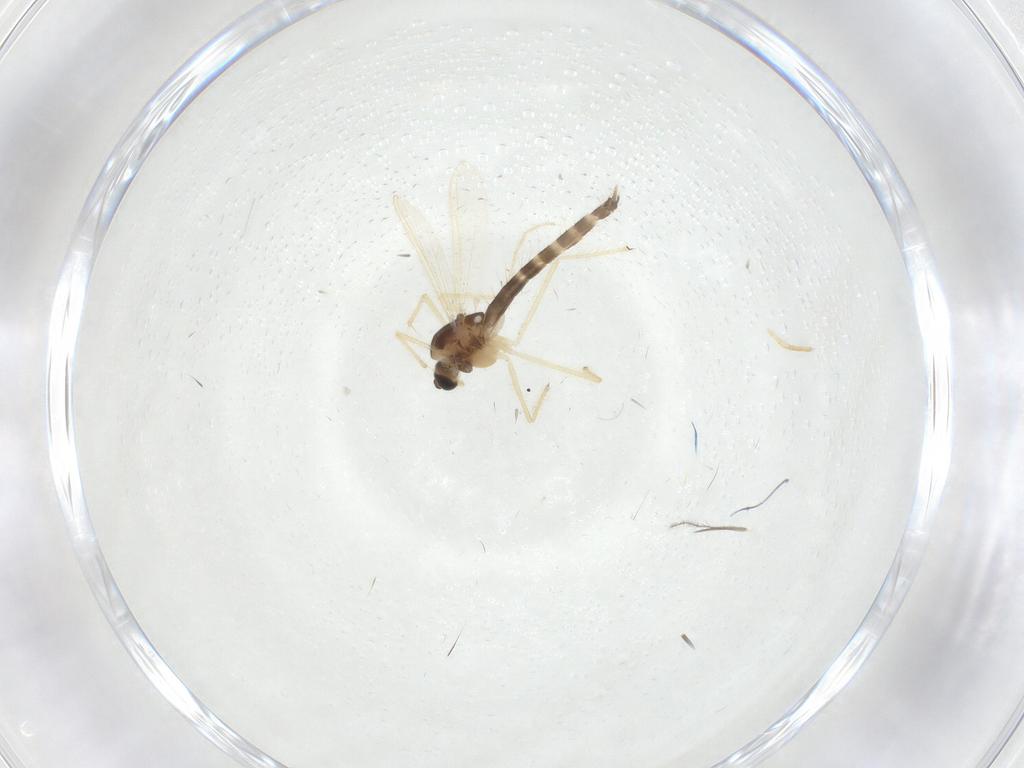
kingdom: Animalia
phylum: Arthropoda
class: Insecta
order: Diptera
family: Chironomidae
